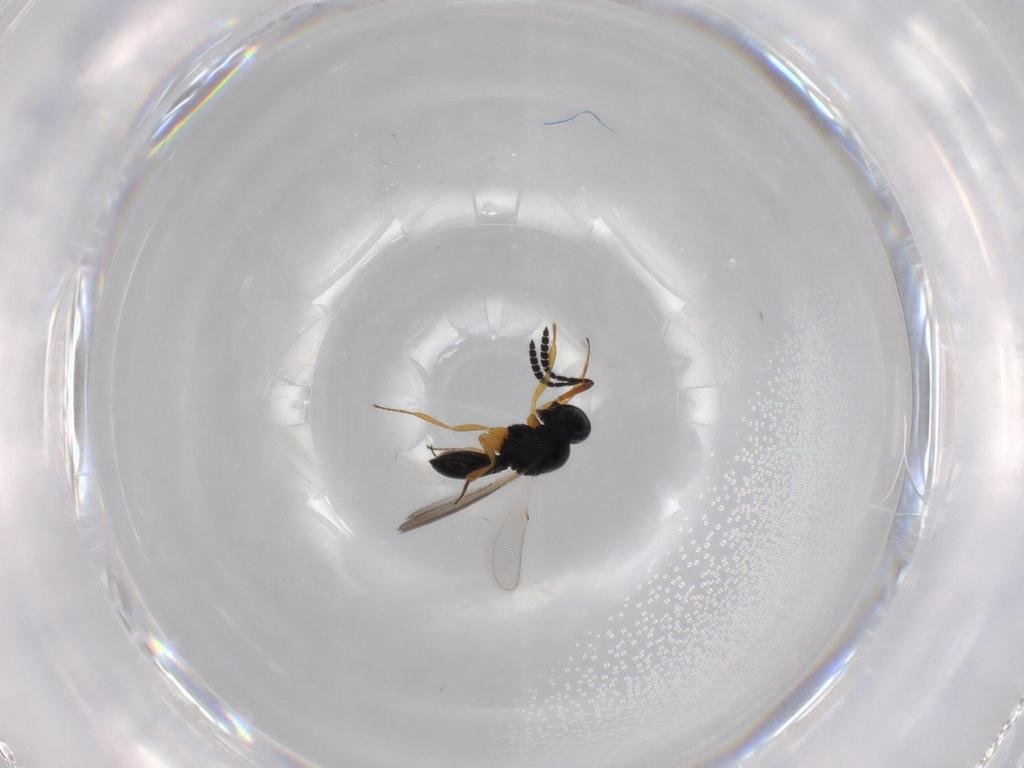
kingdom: Animalia
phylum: Arthropoda
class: Insecta
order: Hymenoptera
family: Scelionidae
